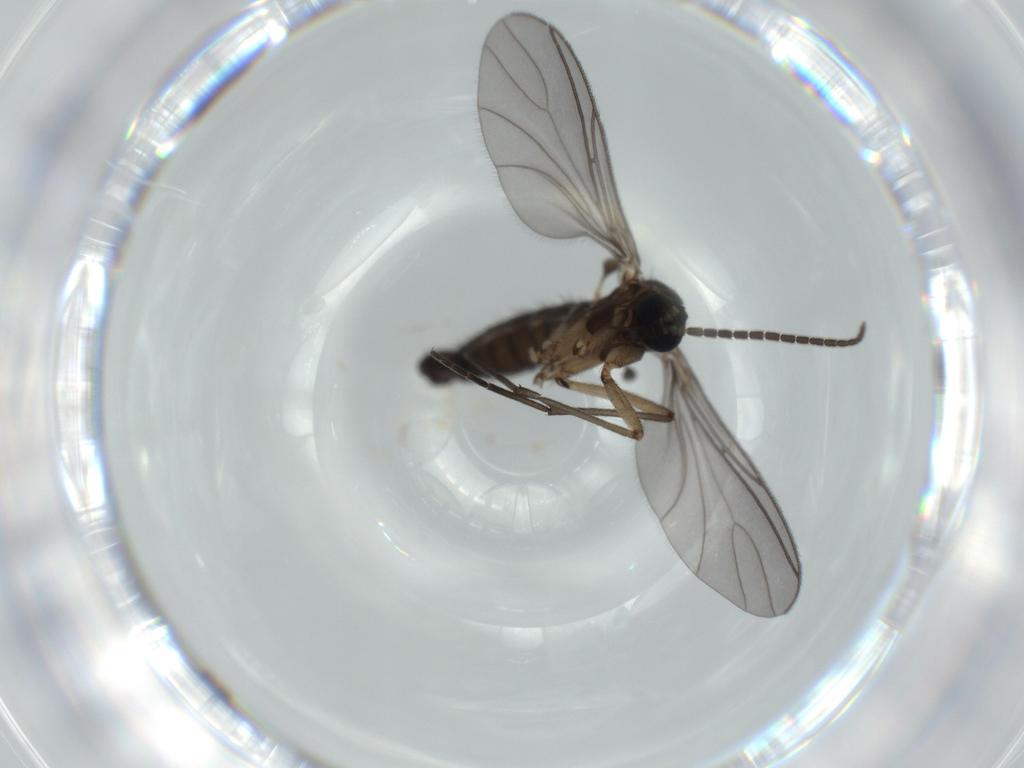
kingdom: Animalia
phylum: Arthropoda
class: Insecta
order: Diptera
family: Sciaridae
